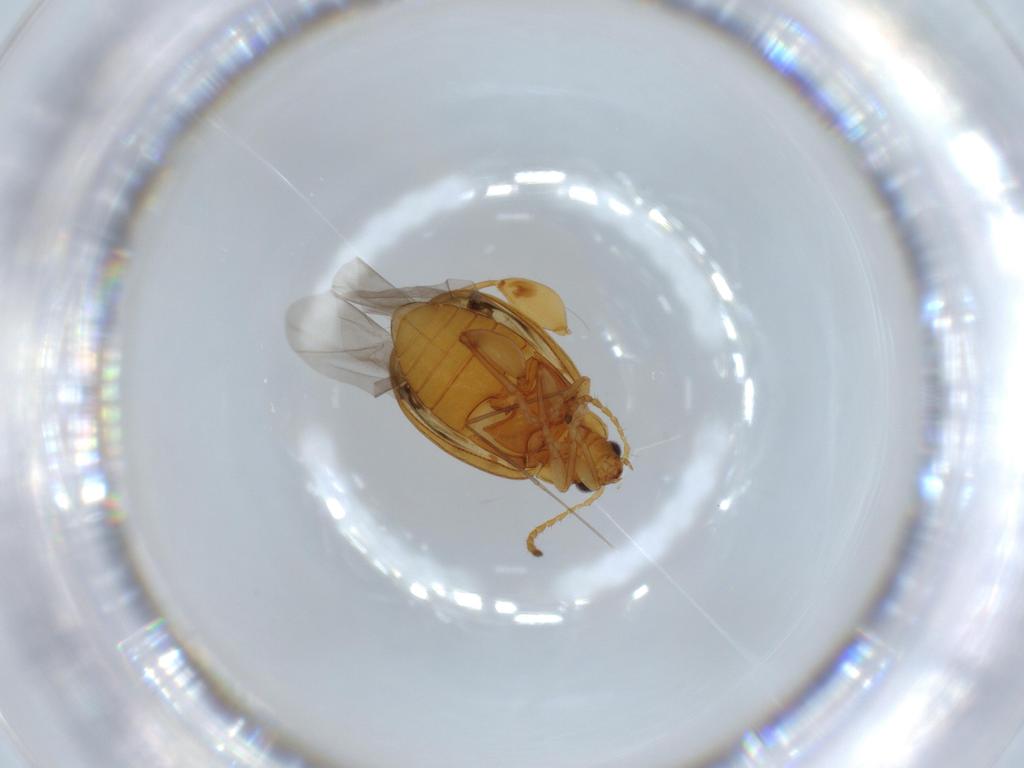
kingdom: Animalia
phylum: Arthropoda
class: Insecta
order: Coleoptera
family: Chrysomelidae
